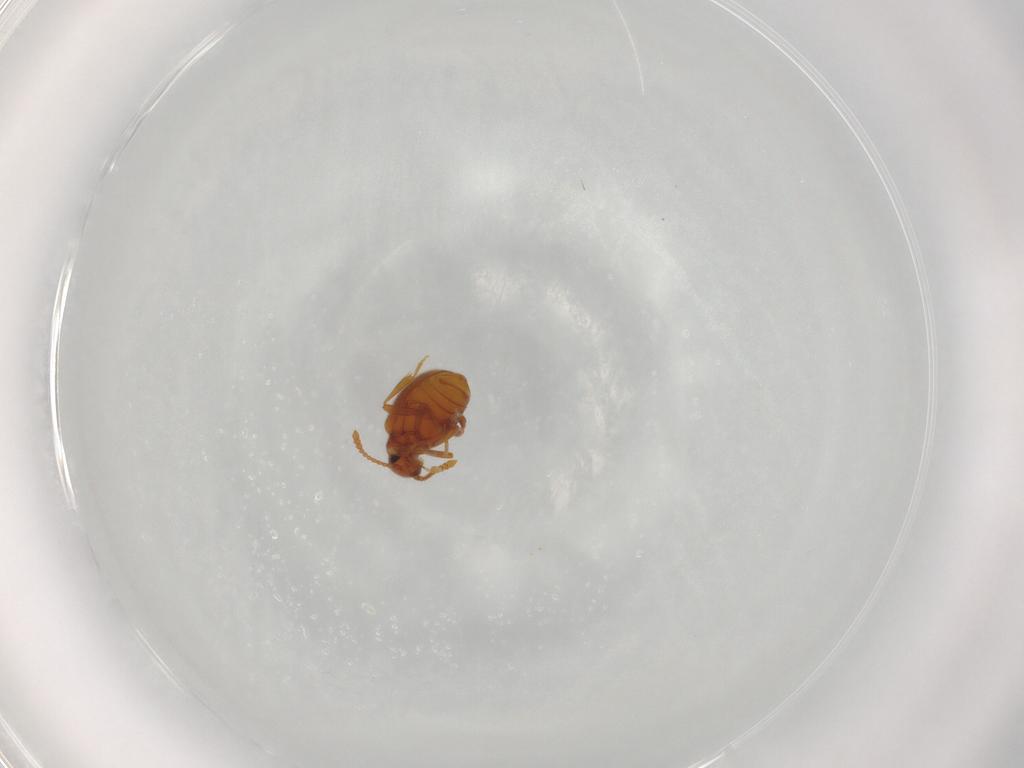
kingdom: Animalia
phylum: Arthropoda
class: Insecta
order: Coleoptera
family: Aderidae
